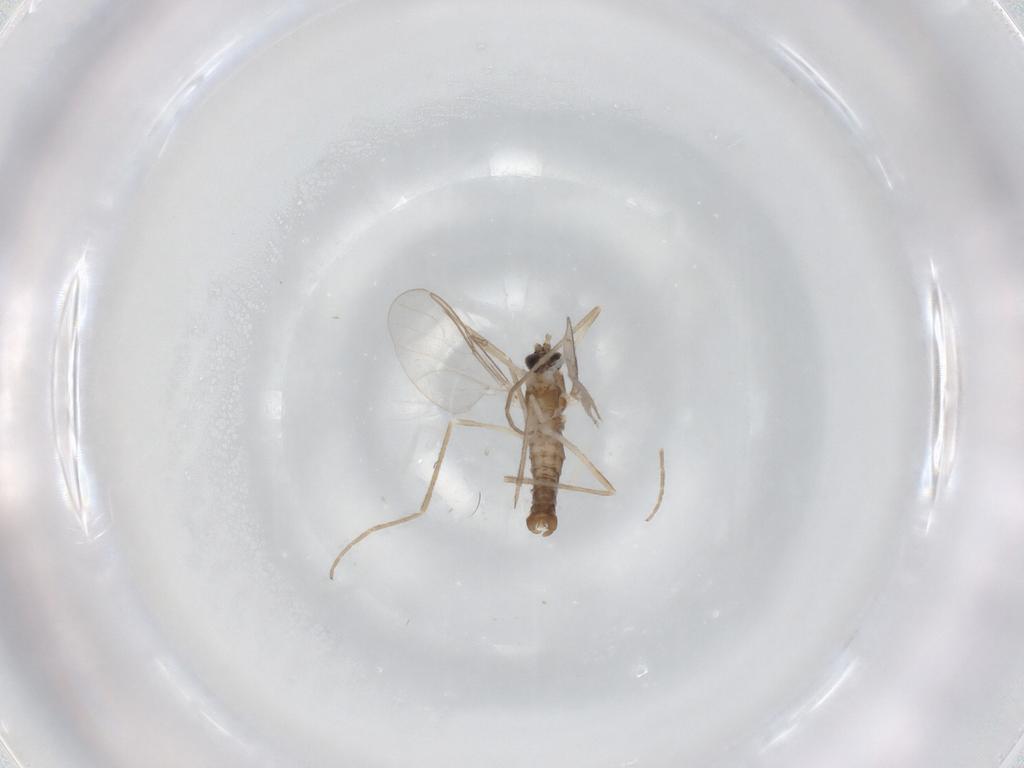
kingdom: Animalia
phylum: Arthropoda
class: Insecta
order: Diptera
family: Cecidomyiidae
